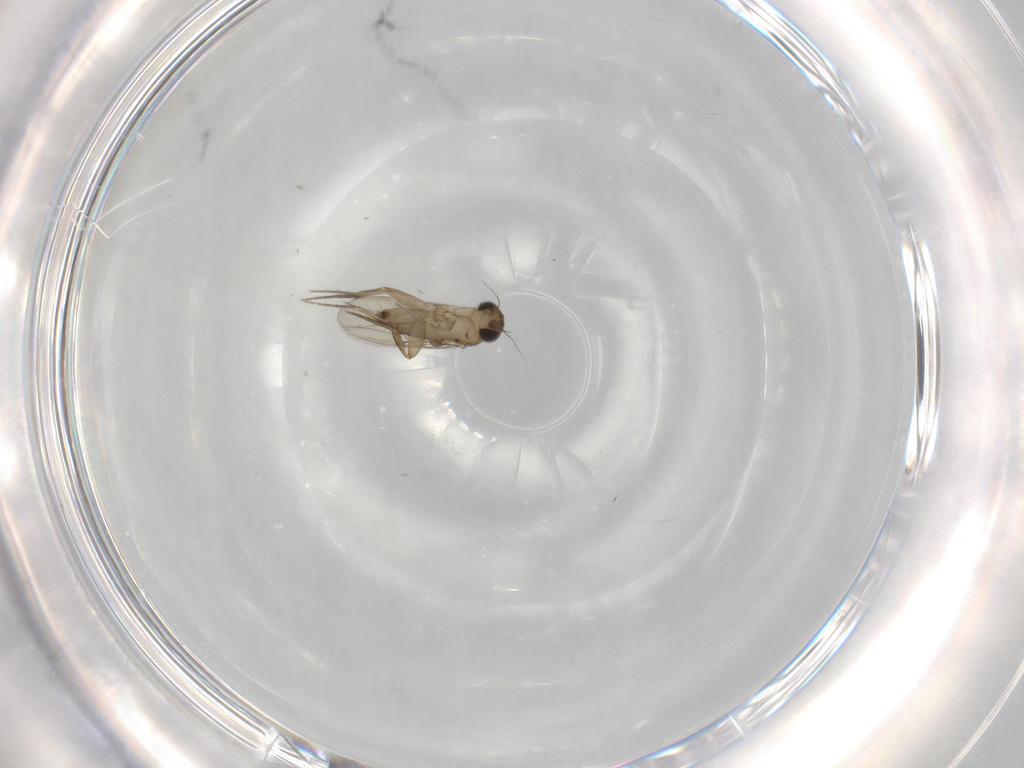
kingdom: Animalia
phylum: Arthropoda
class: Insecta
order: Diptera
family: Phoridae
